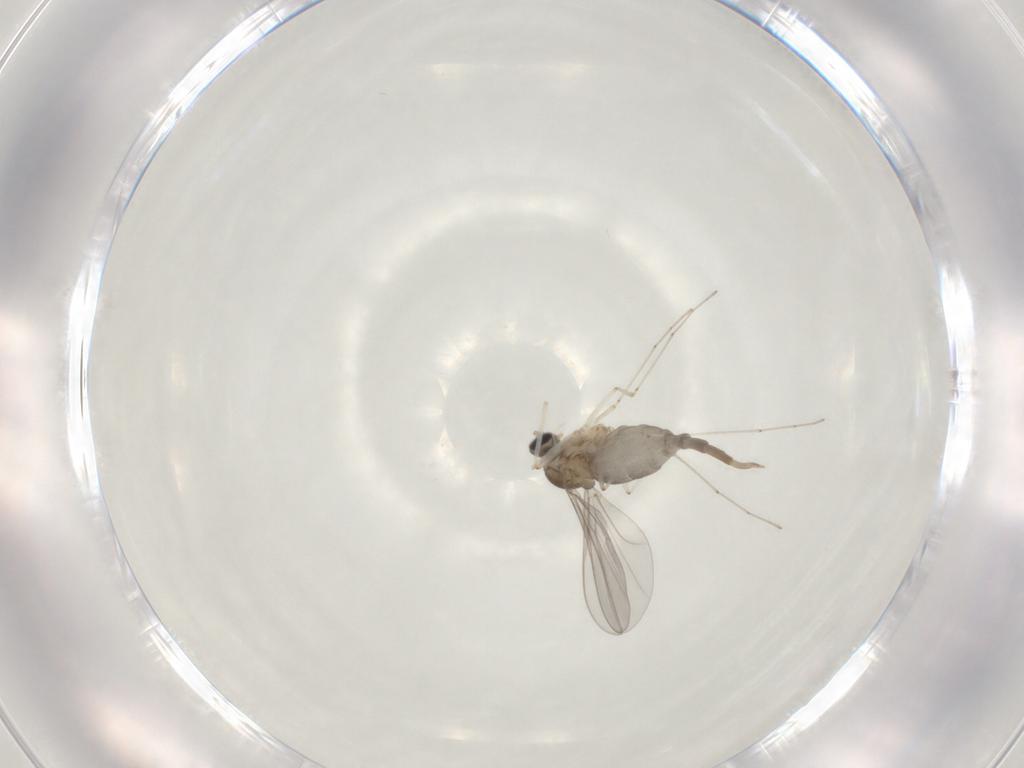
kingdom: Animalia
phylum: Arthropoda
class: Insecta
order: Diptera
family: Cecidomyiidae
